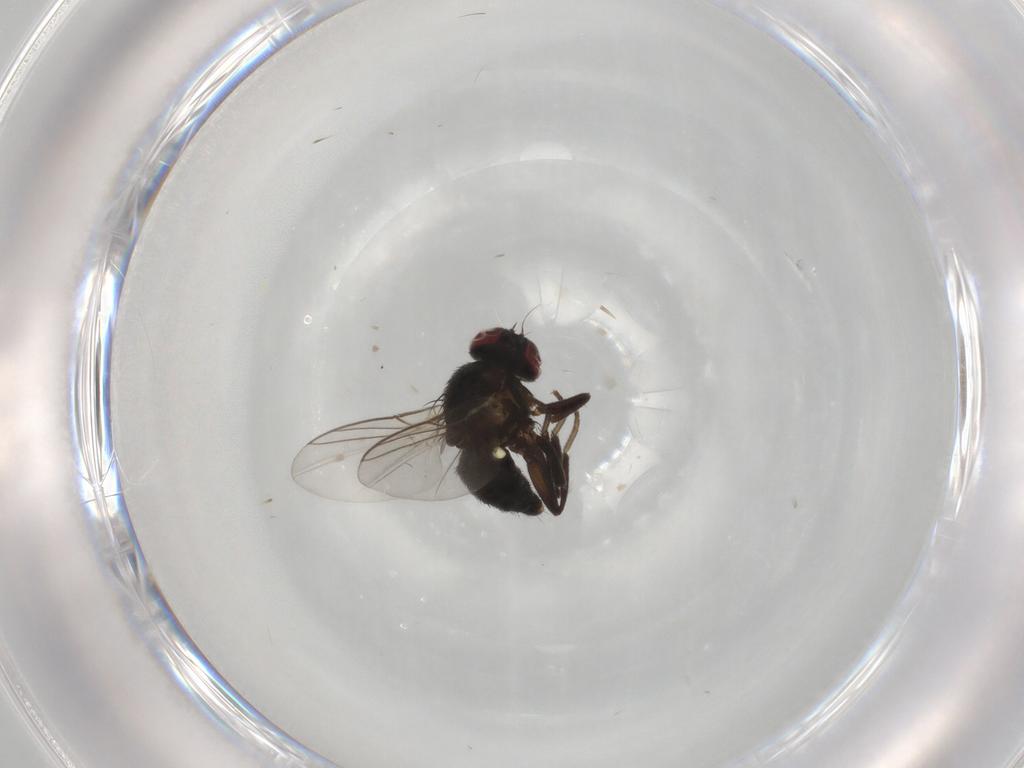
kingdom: Animalia
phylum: Arthropoda
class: Insecta
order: Diptera
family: Agromyzidae
